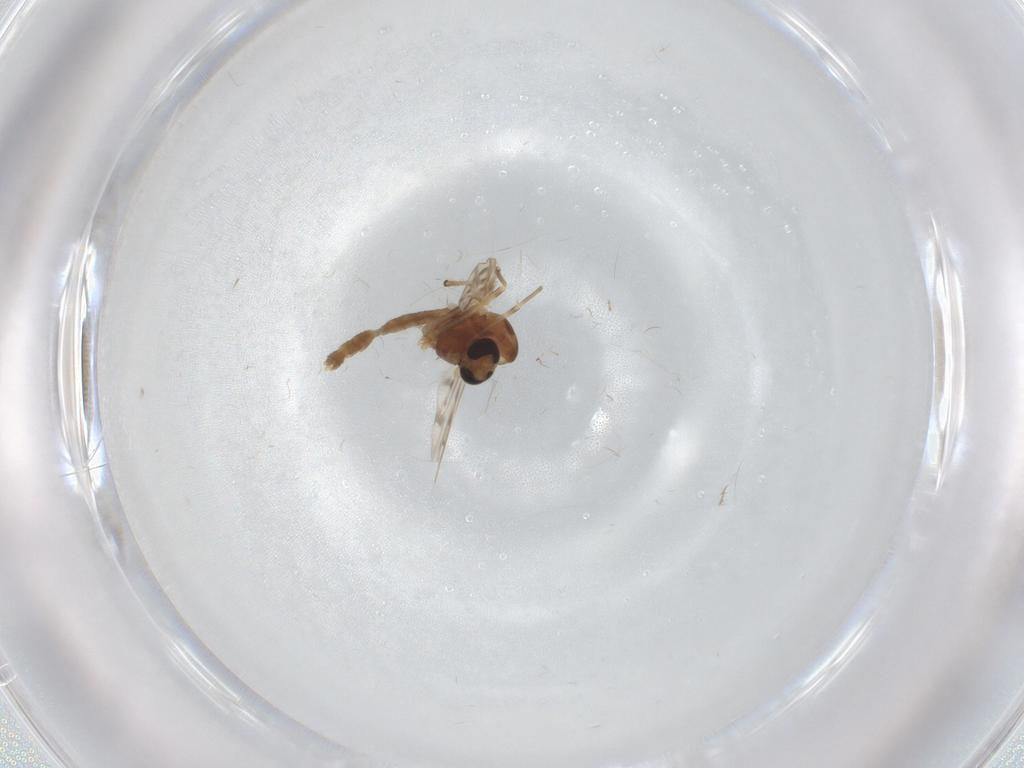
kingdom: Animalia
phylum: Arthropoda
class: Insecta
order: Diptera
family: Chironomidae
